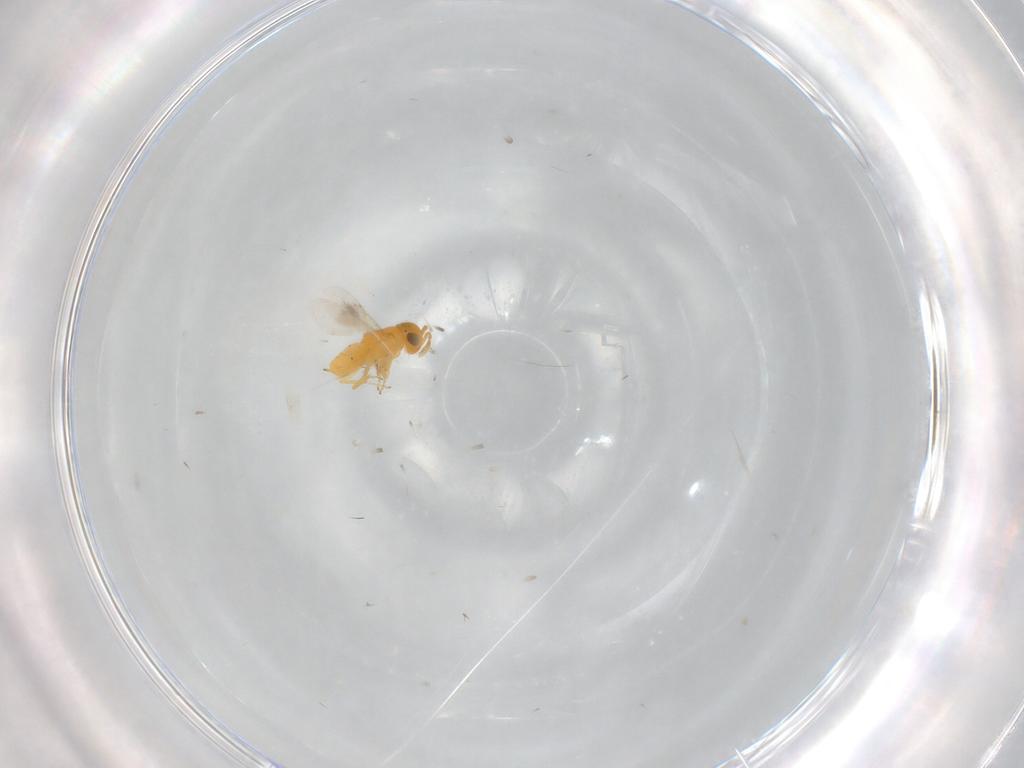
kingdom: Animalia
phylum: Arthropoda
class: Insecta
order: Hymenoptera
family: Encyrtidae
